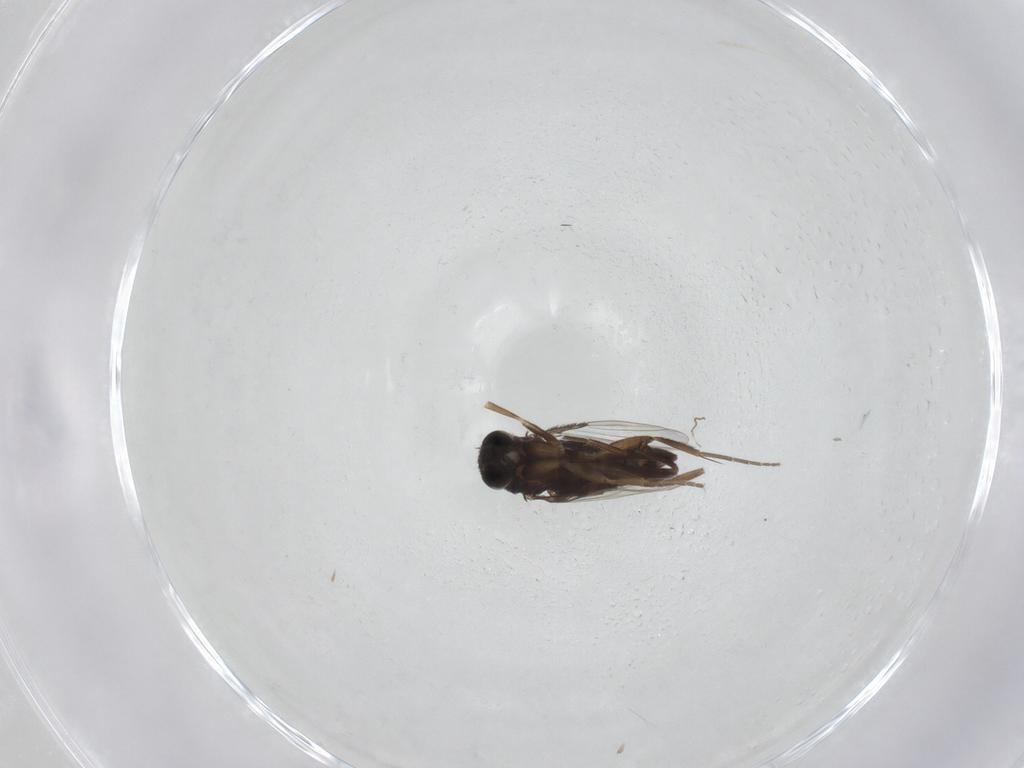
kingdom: Animalia
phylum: Arthropoda
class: Insecta
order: Diptera
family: Phoridae
